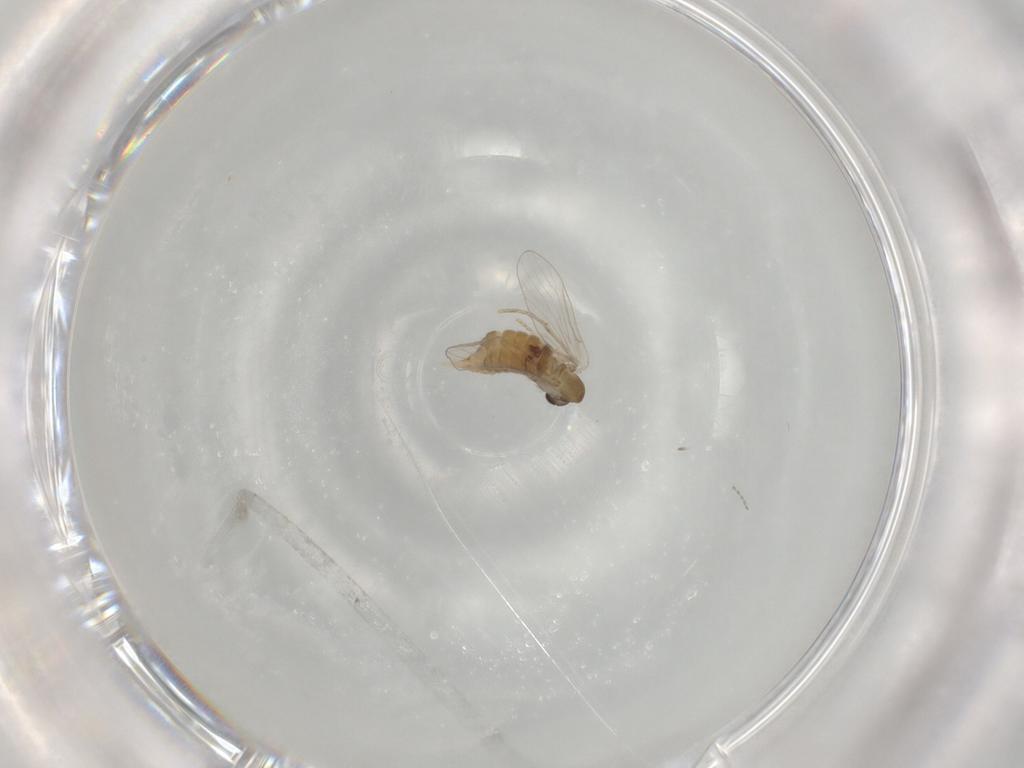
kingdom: Animalia
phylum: Arthropoda
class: Insecta
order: Diptera
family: Psychodidae
